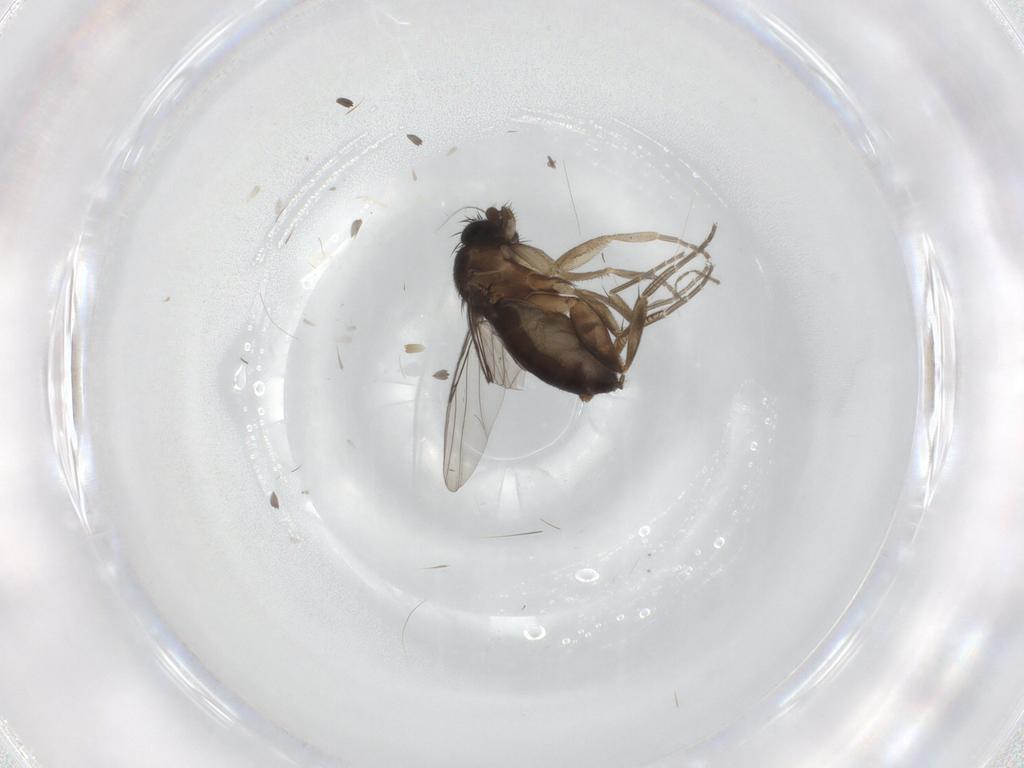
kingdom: Animalia
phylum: Arthropoda
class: Insecta
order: Diptera
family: Phoridae
